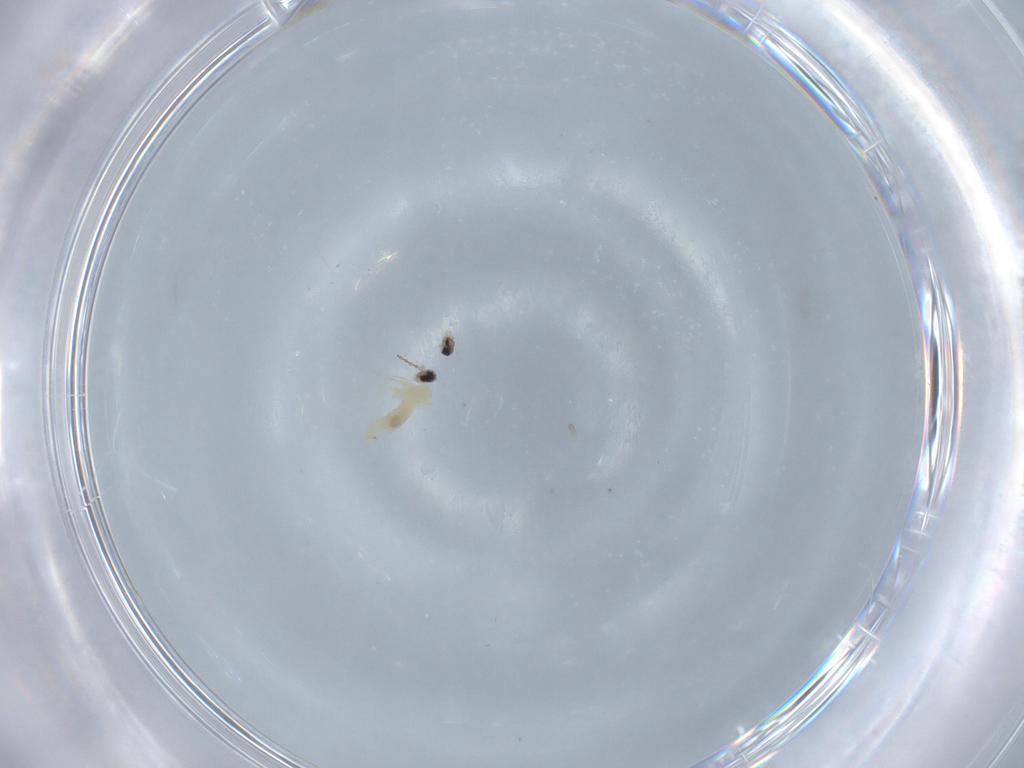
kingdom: Animalia
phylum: Arthropoda
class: Insecta
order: Diptera
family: Cecidomyiidae
